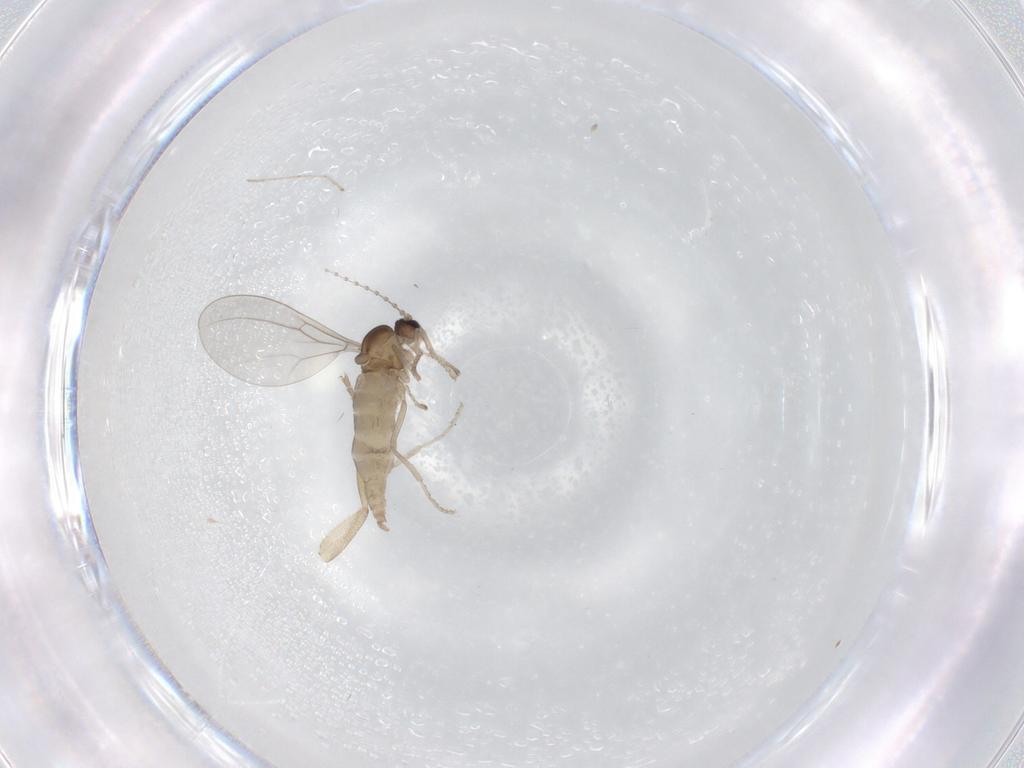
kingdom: Animalia
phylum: Arthropoda
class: Insecta
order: Diptera
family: Cecidomyiidae
